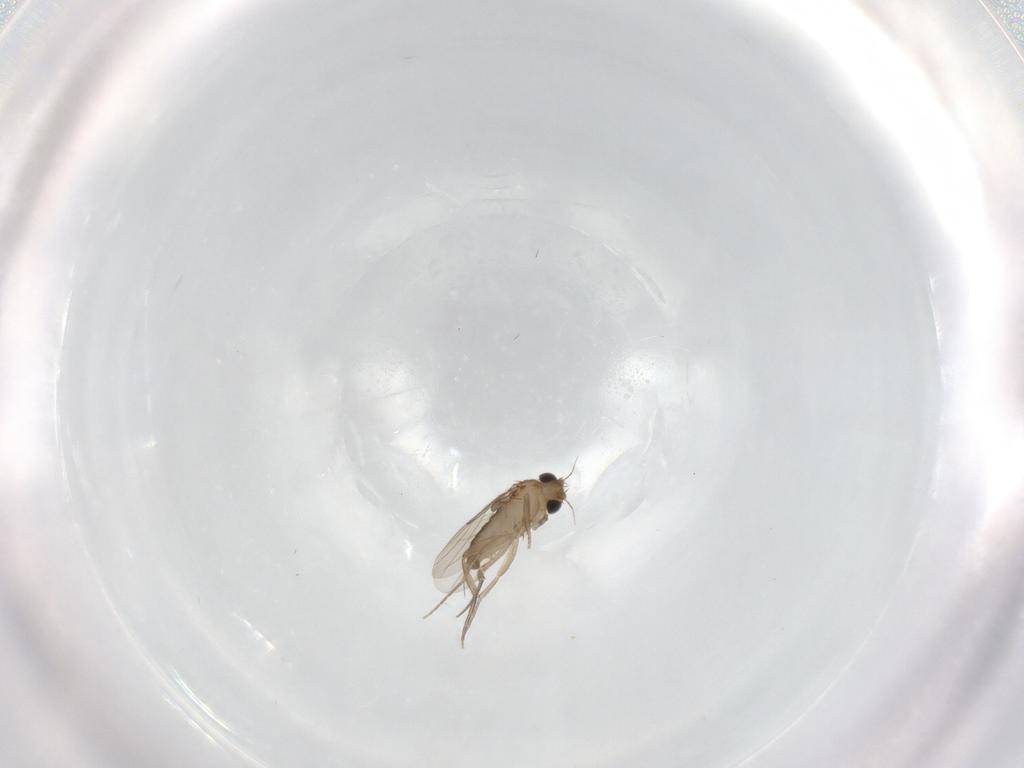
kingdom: Animalia
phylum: Arthropoda
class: Insecta
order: Diptera
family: Phoridae
